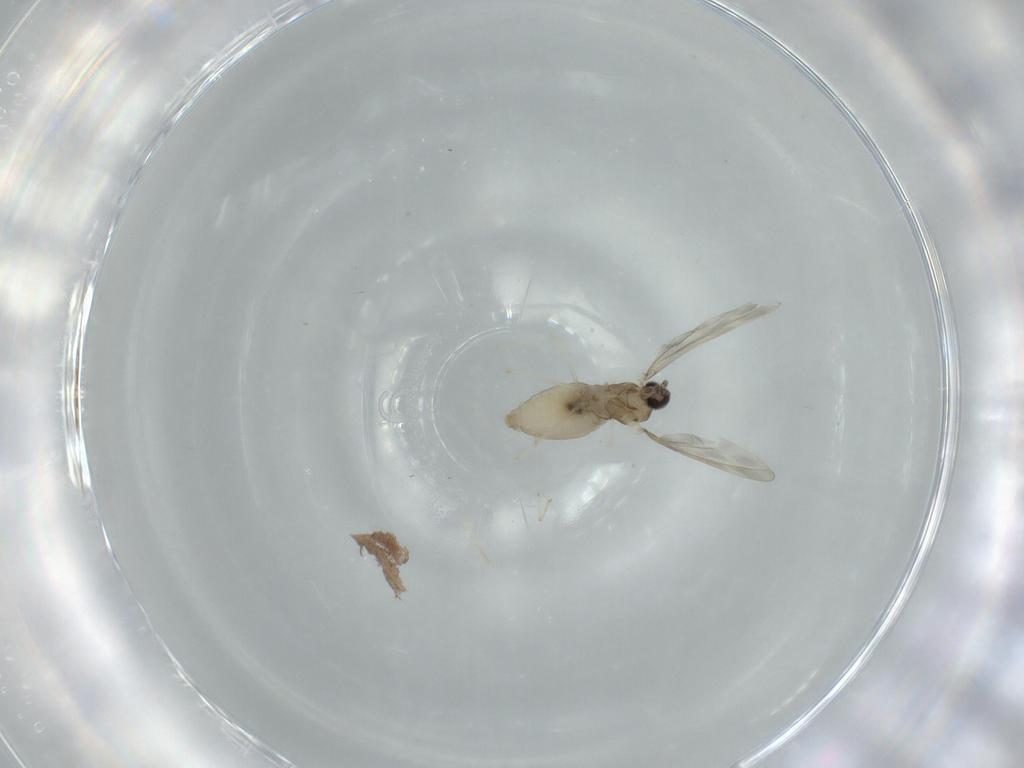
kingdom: Animalia
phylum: Arthropoda
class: Insecta
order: Diptera
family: Cecidomyiidae
